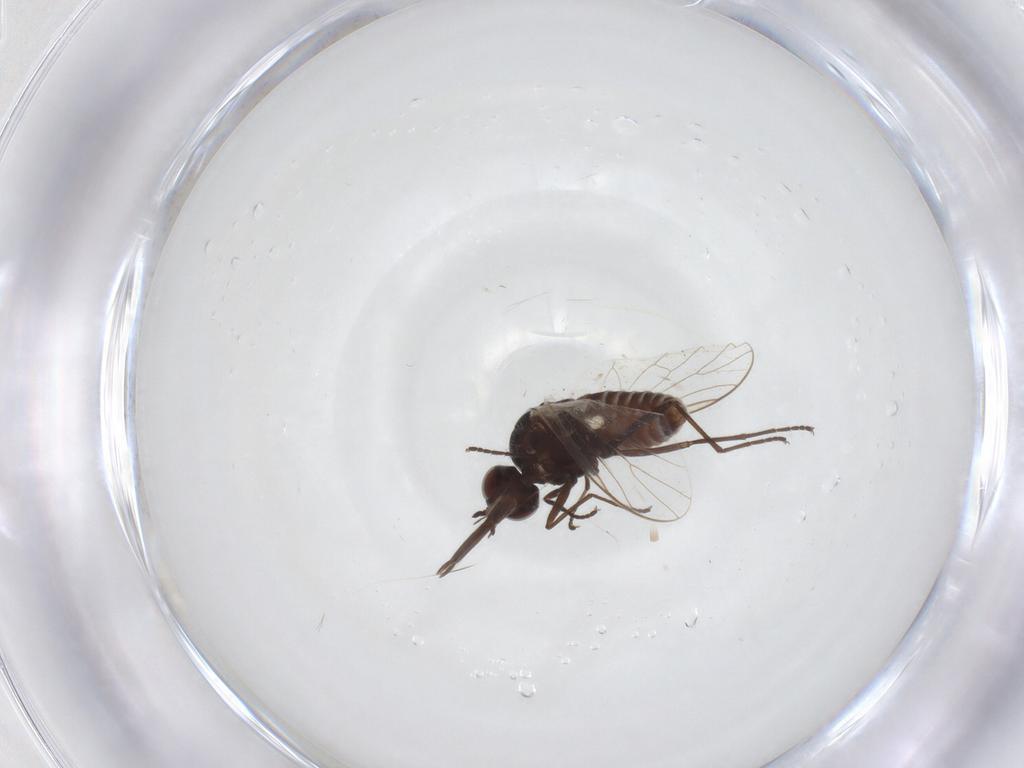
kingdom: Animalia
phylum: Arthropoda
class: Insecta
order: Diptera
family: Bombyliidae
